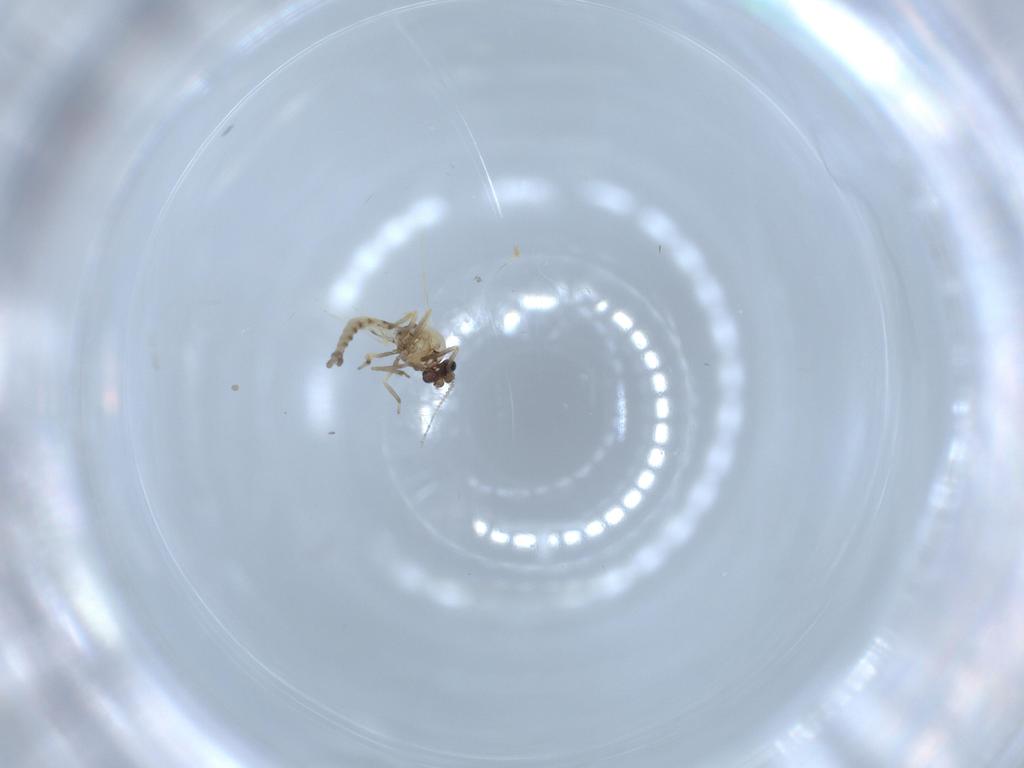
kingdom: Animalia
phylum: Arthropoda
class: Insecta
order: Diptera
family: Ceratopogonidae
